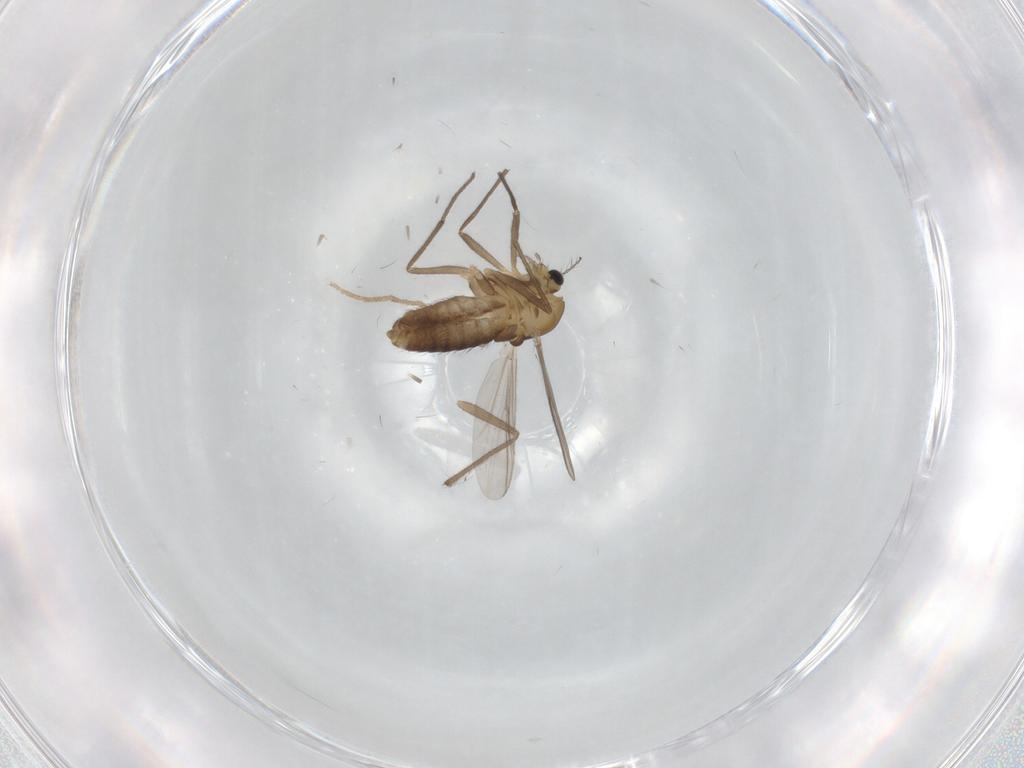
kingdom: Animalia
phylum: Arthropoda
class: Insecta
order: Diptera
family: Chironomidae
